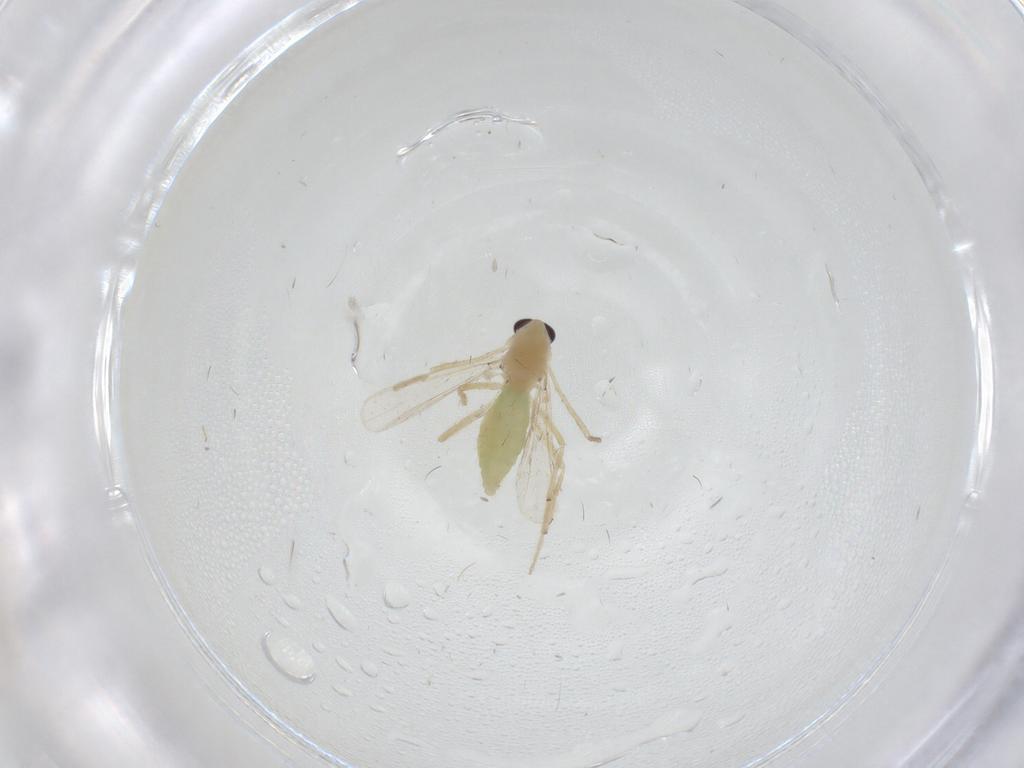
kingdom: Animalia
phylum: Arthropoda
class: Insecta
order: Diptera
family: Chironomidae
